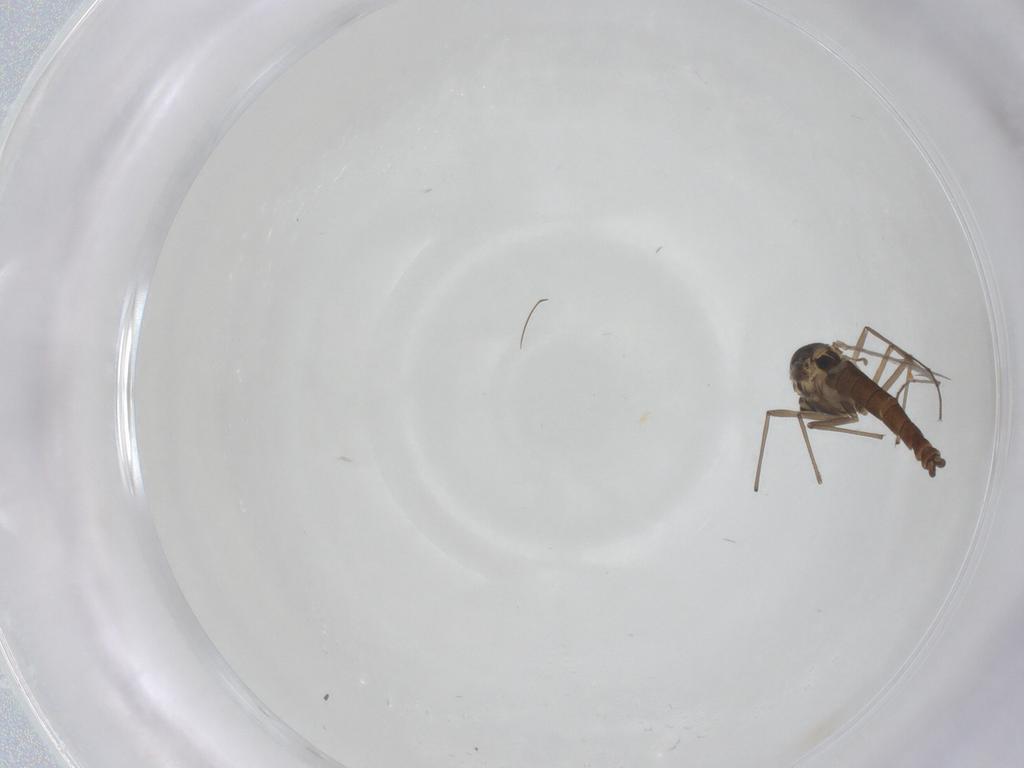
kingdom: Animalia
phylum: Arthropoda
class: Insecta
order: Diptera
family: Chironomidae
